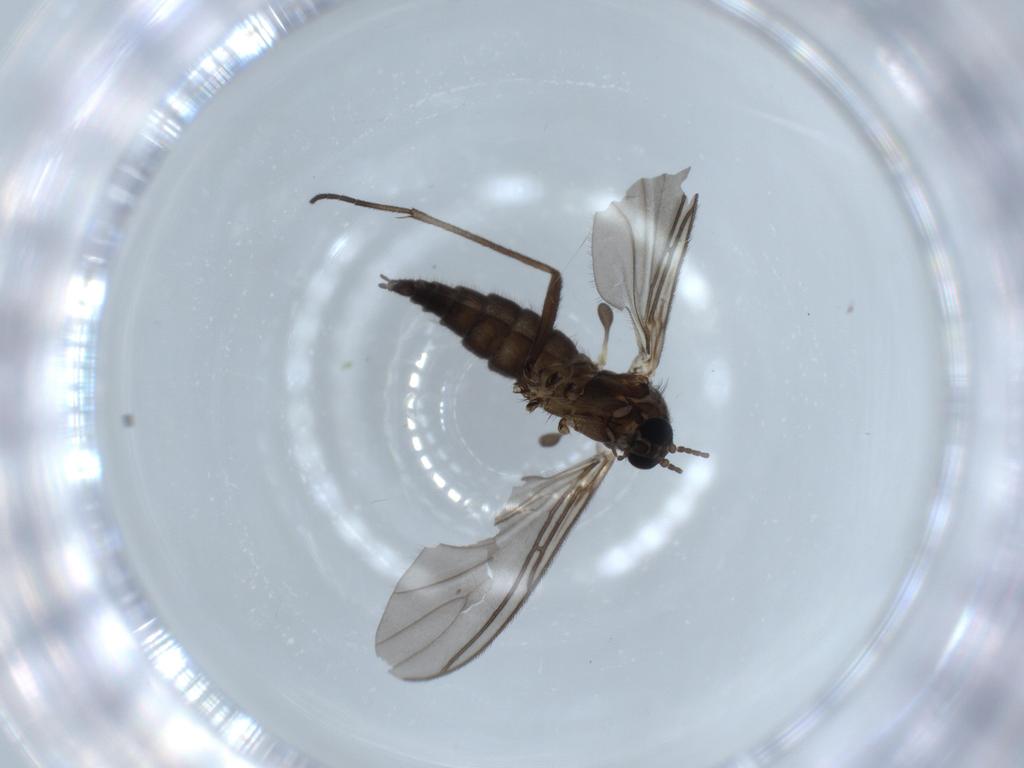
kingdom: Animalia
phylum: Arthropoda
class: Insecta
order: Diptera
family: Cecidomyiidae
